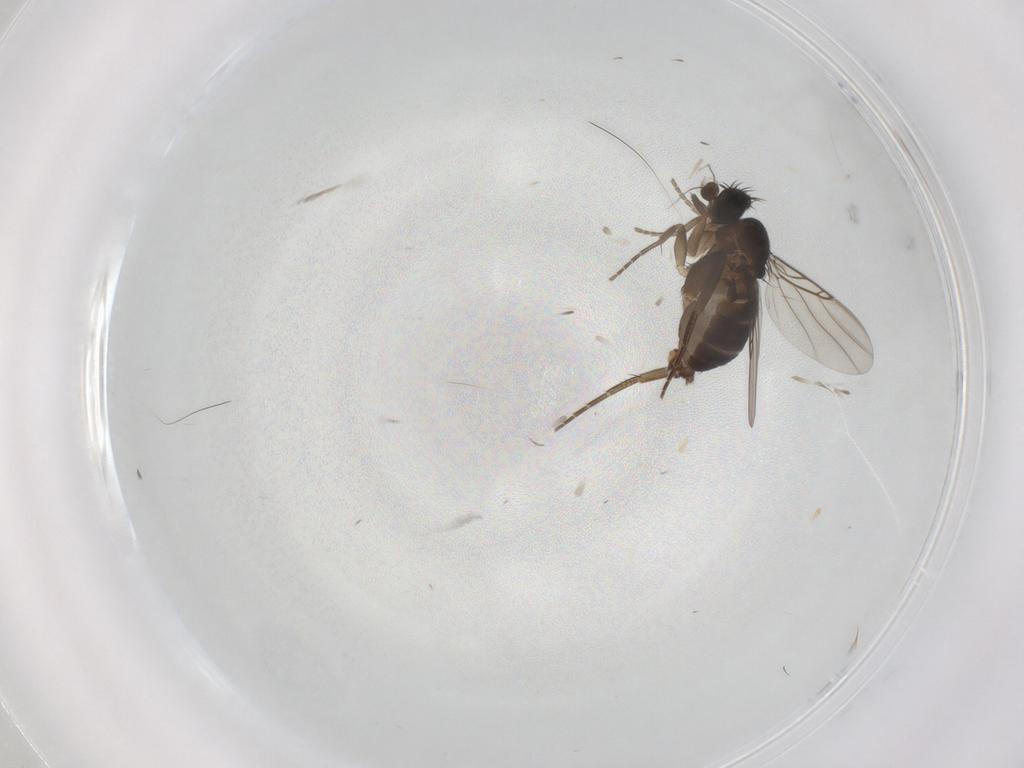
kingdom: Animalia
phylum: Arthropoda
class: Insecta
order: Diptera
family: Phoridae
